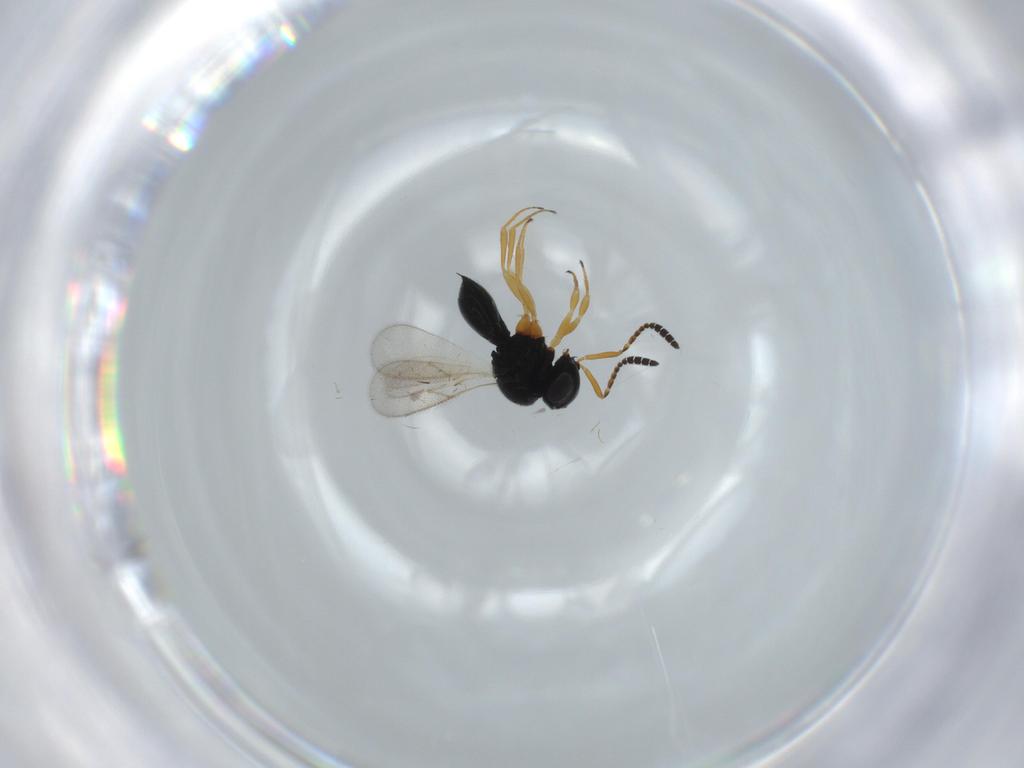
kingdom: Animalia
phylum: Arthropoda
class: Insecta
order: Hymenoptera
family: Scelionidae
